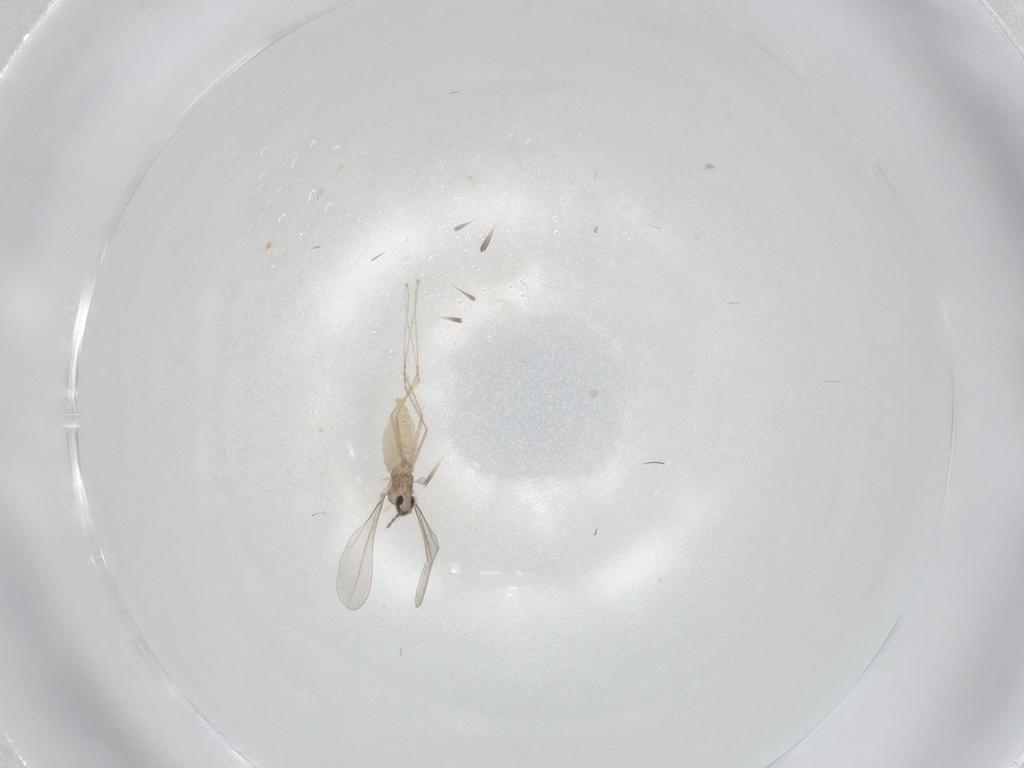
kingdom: Animalia
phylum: Arthropoda
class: Insecta
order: Diptera
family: Cecidomyiidae
